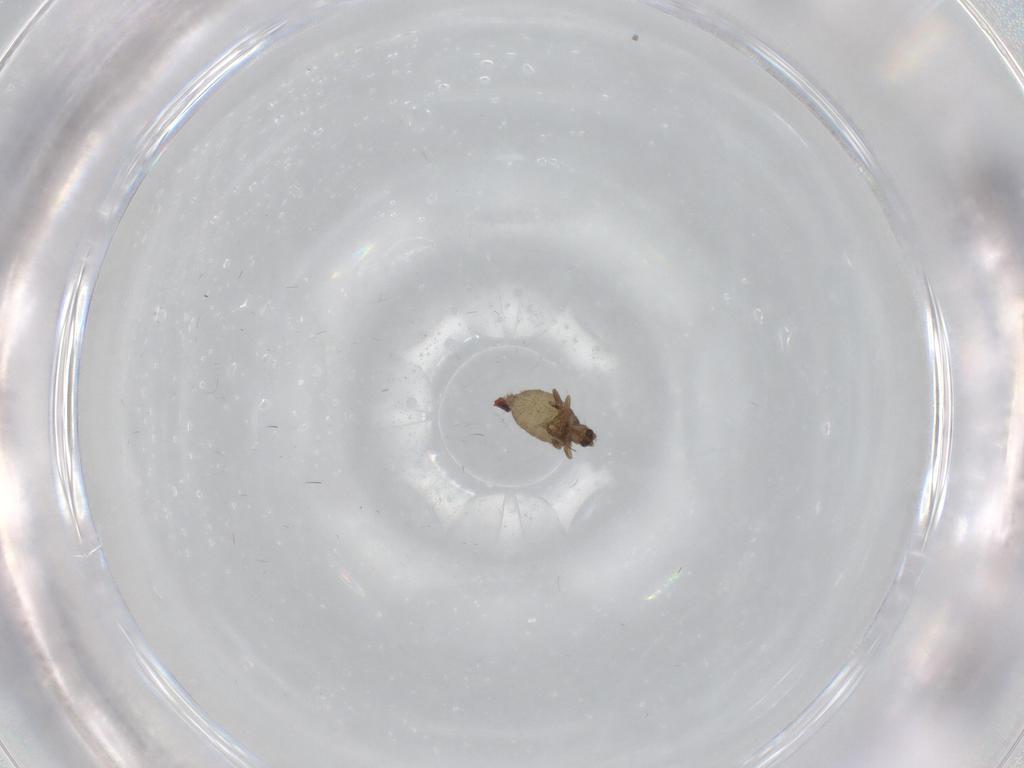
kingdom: Animalia
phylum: Arthropoda
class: Insecta
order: Diptera
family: Phoridae
